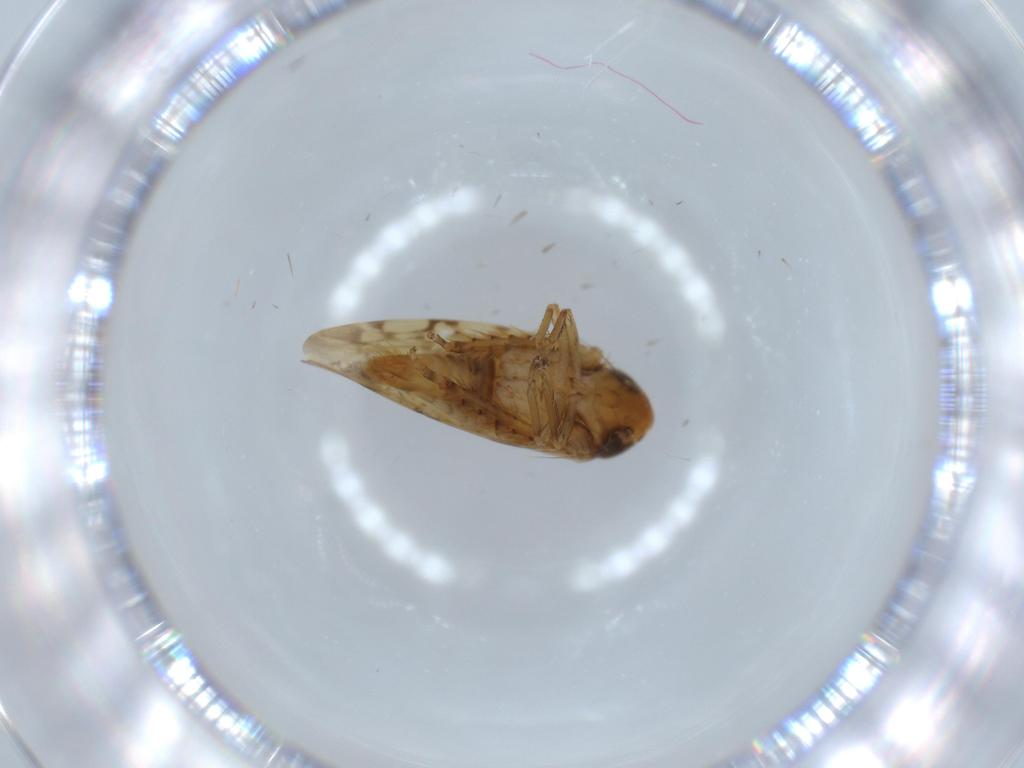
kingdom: Animalia
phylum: Arthropoda
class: Insecta
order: Hemiptera
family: Cicadellidae
